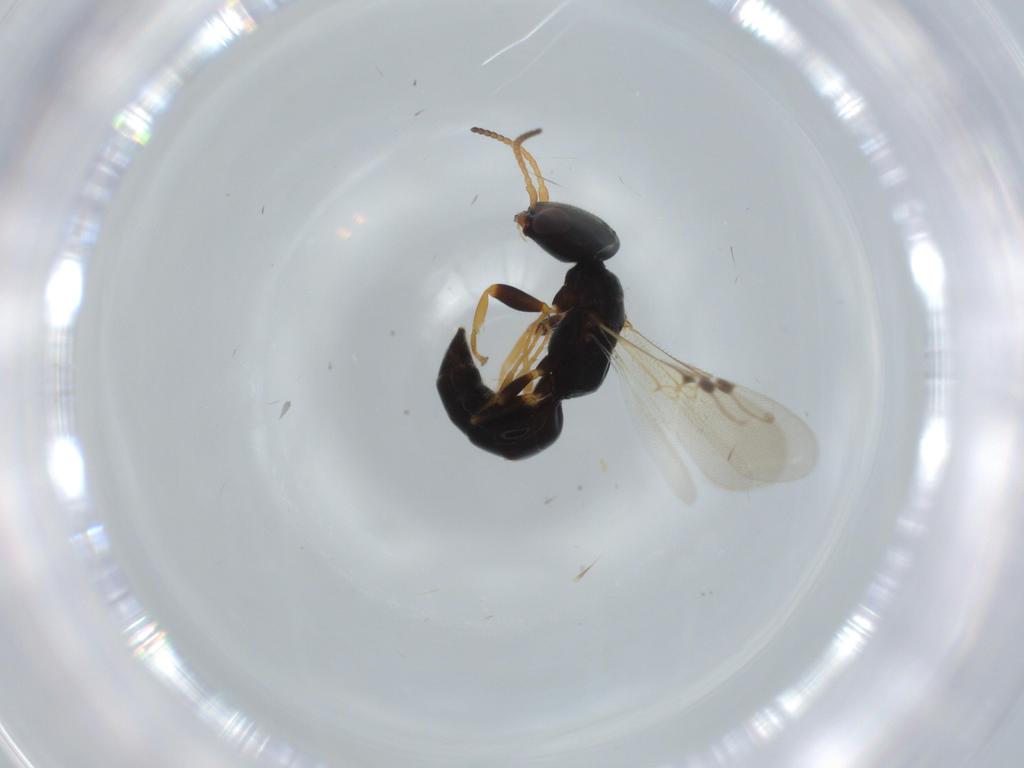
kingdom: Animalia
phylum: Arthropoda
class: Insecta
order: Hymenoptera
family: Bethylidae
